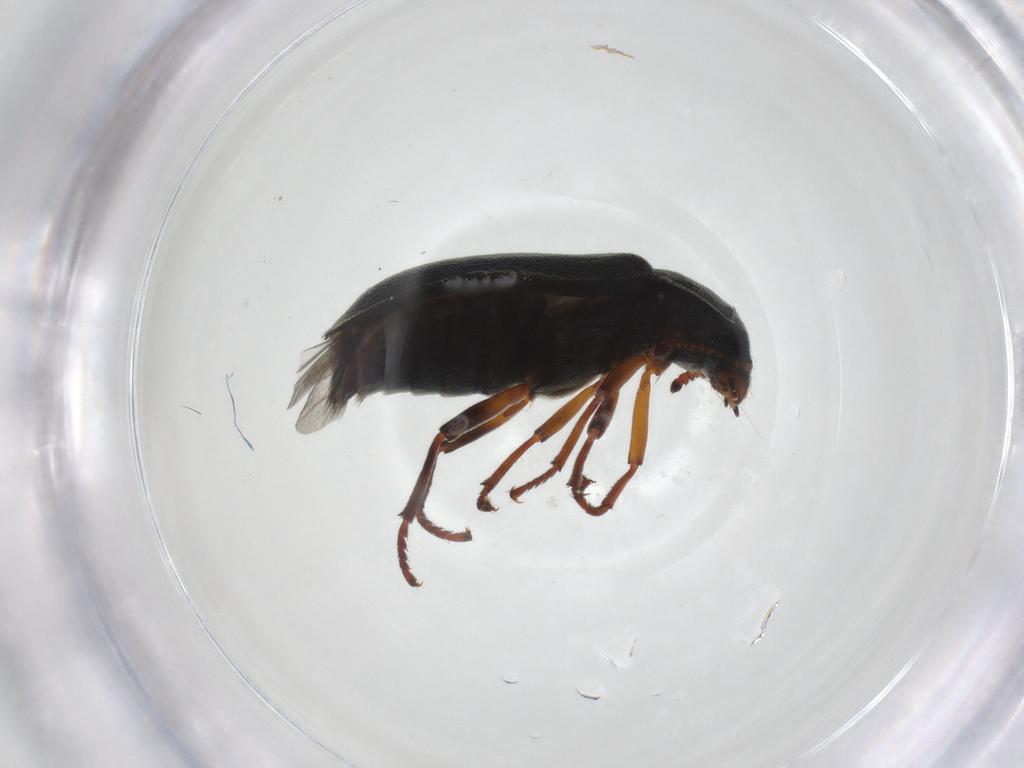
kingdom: Animalia
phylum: Arthropoda
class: Insecta
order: Coleoptera
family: Melyridae
